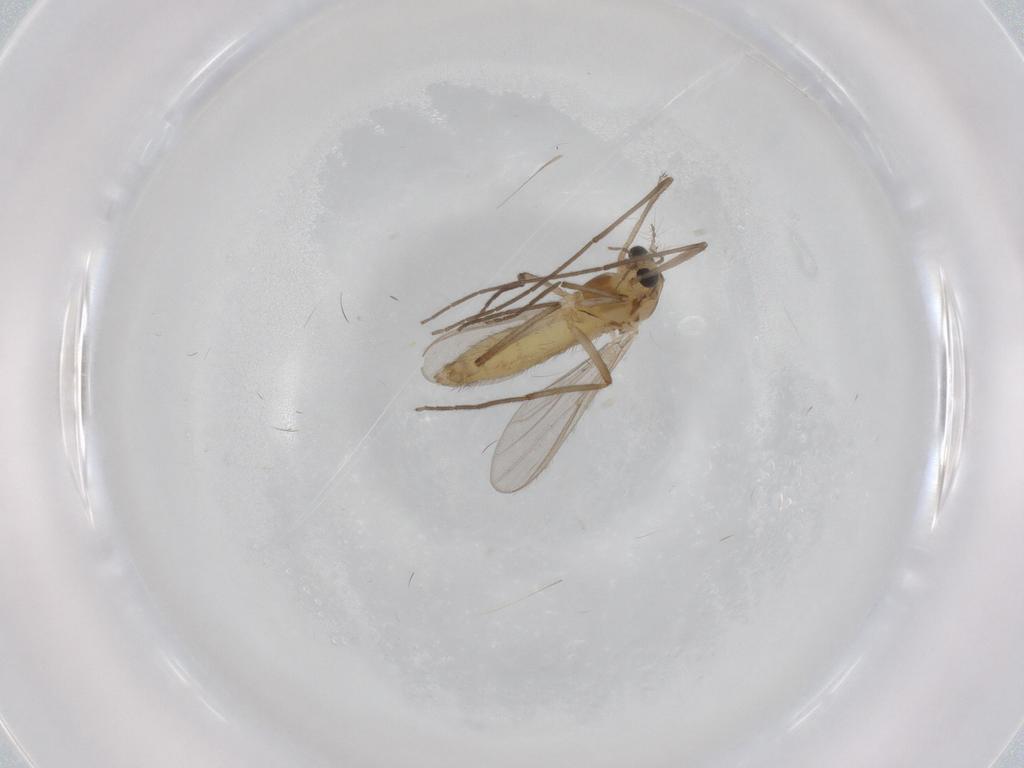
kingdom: Animalia
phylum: Arthropoda
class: Insecta
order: Diptera
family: Chironomidae
